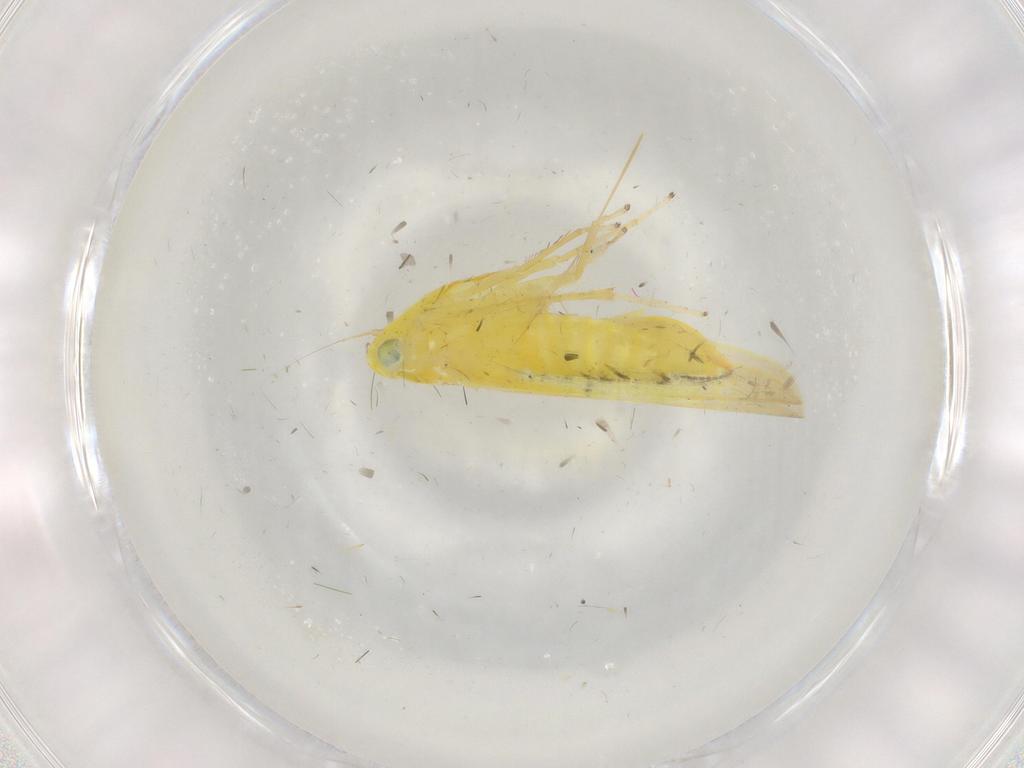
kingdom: Animalia
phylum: Arthropoda
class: Insecta
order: Hemiptera
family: Cicadellidae
